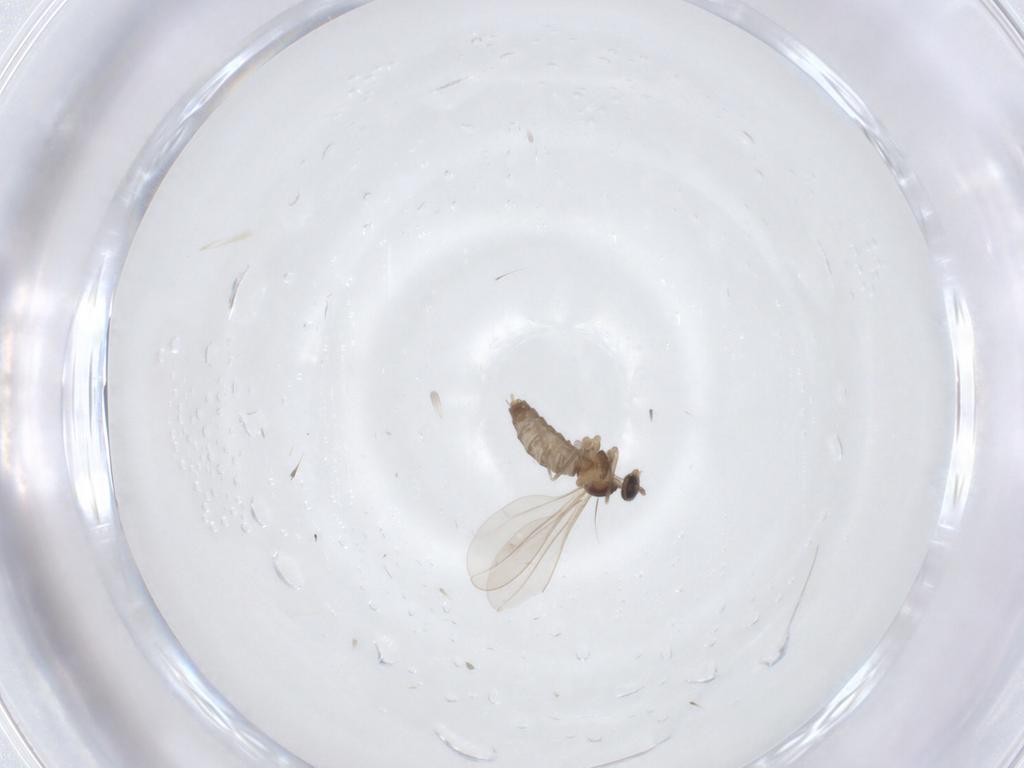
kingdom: Animalia
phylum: Arthropoda
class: Insecta
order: Diptera
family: Cecidomyiidae
